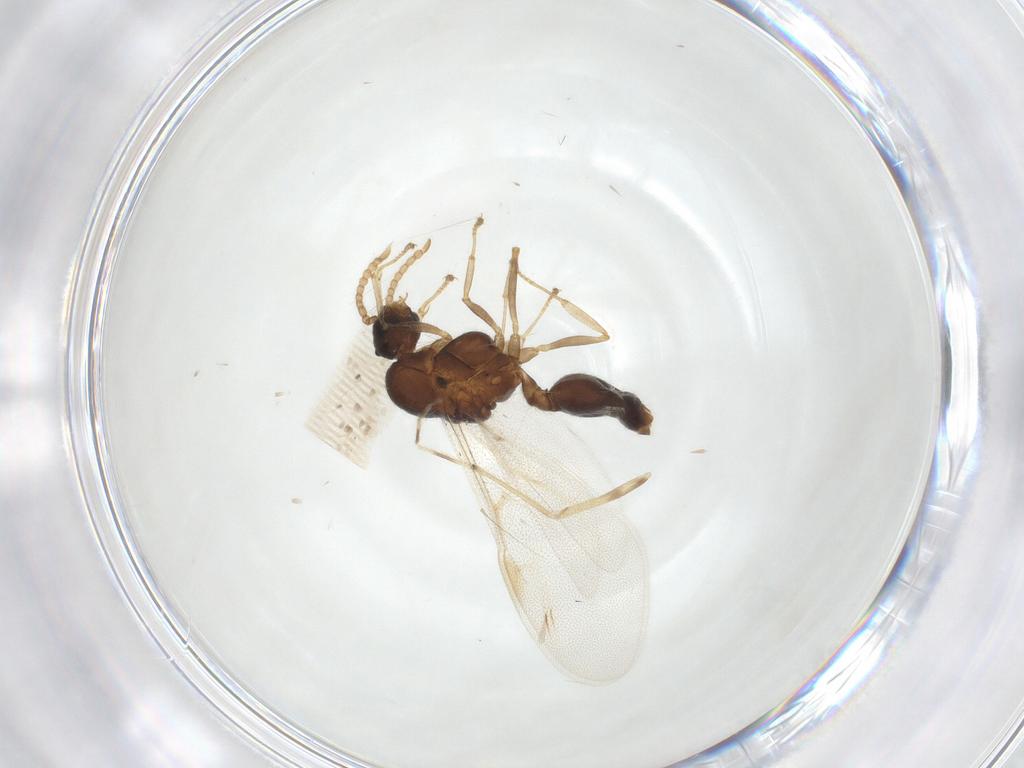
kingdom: Animalia
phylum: Arthropoda
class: Insecta
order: Hymenoptera
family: Formicidae
